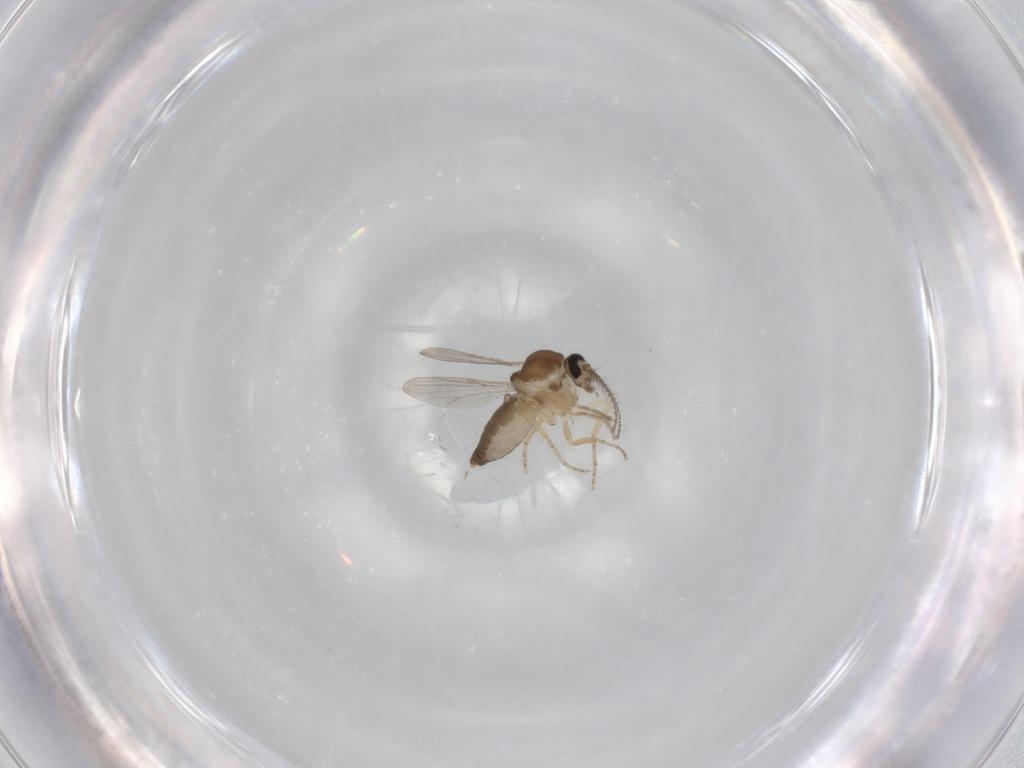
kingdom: Animalia
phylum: Arthropoda
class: Insecta
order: Diptera
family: Ceratopogonidae
